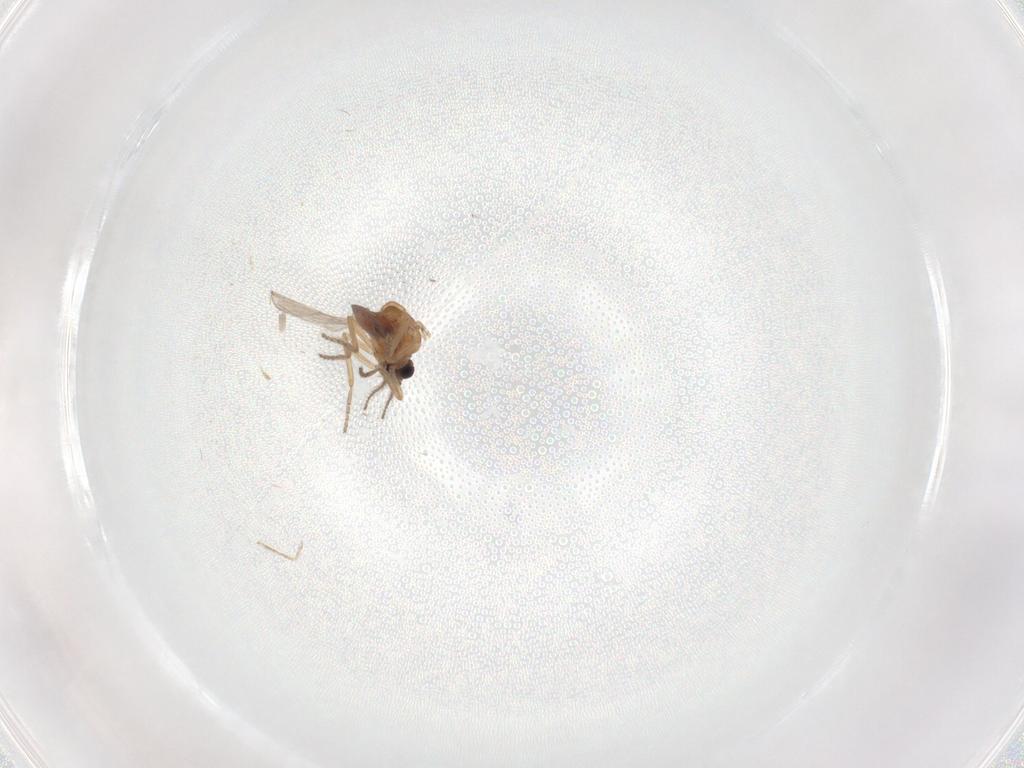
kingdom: Animalia
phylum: Arthropoda
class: Insecta
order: Diptera
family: Cecidomyiidae
